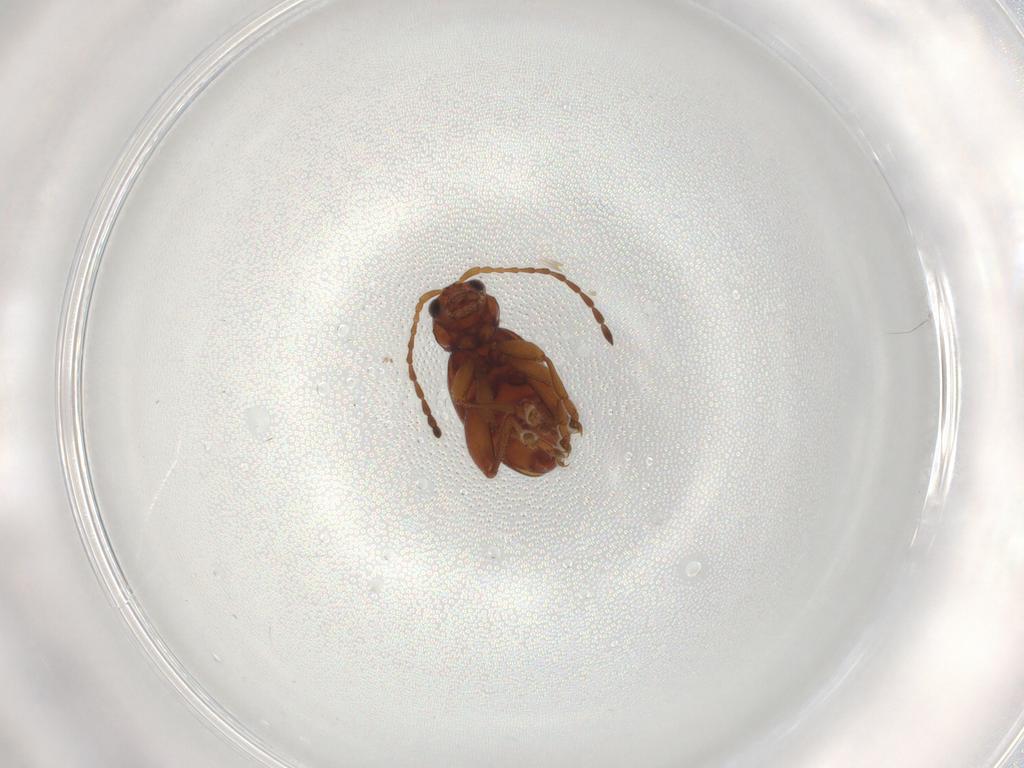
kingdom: Animalia
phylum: Arthropoda
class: Insecta
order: Coleoptera
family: Chrysomelidae
